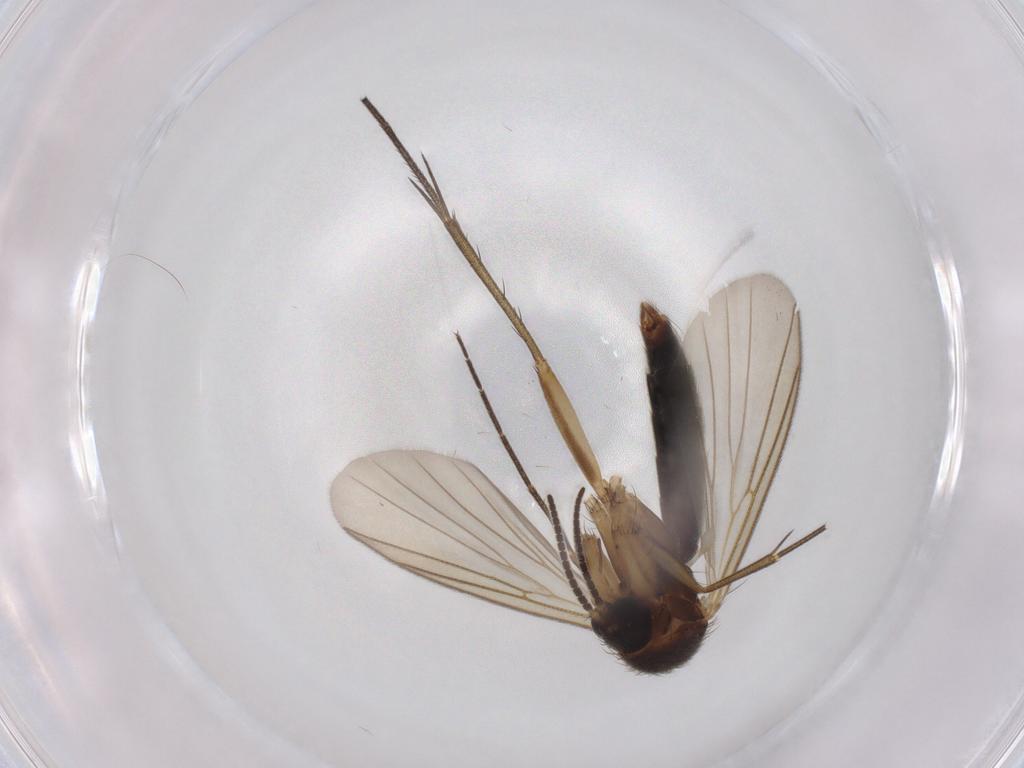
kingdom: Animalia
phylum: Arthropoda
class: Insecta
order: Diptera
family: Mycetophilidae
